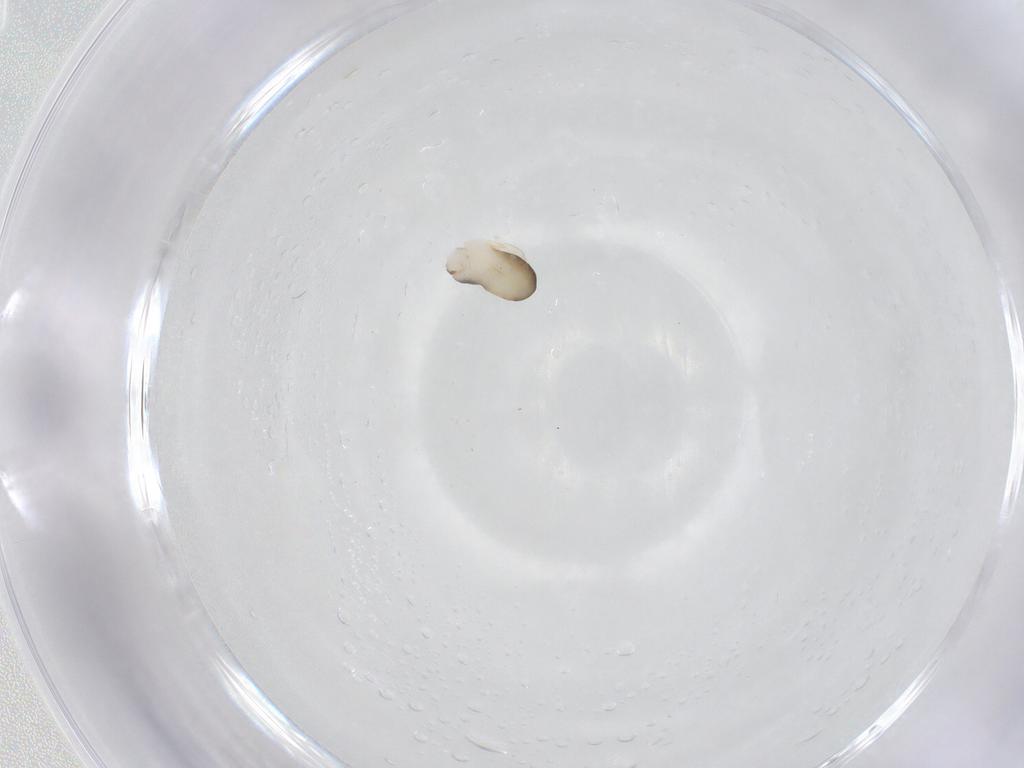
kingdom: Animalia
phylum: Arthropoda
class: Insecta
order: Hymenoptera
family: Dryinidae
